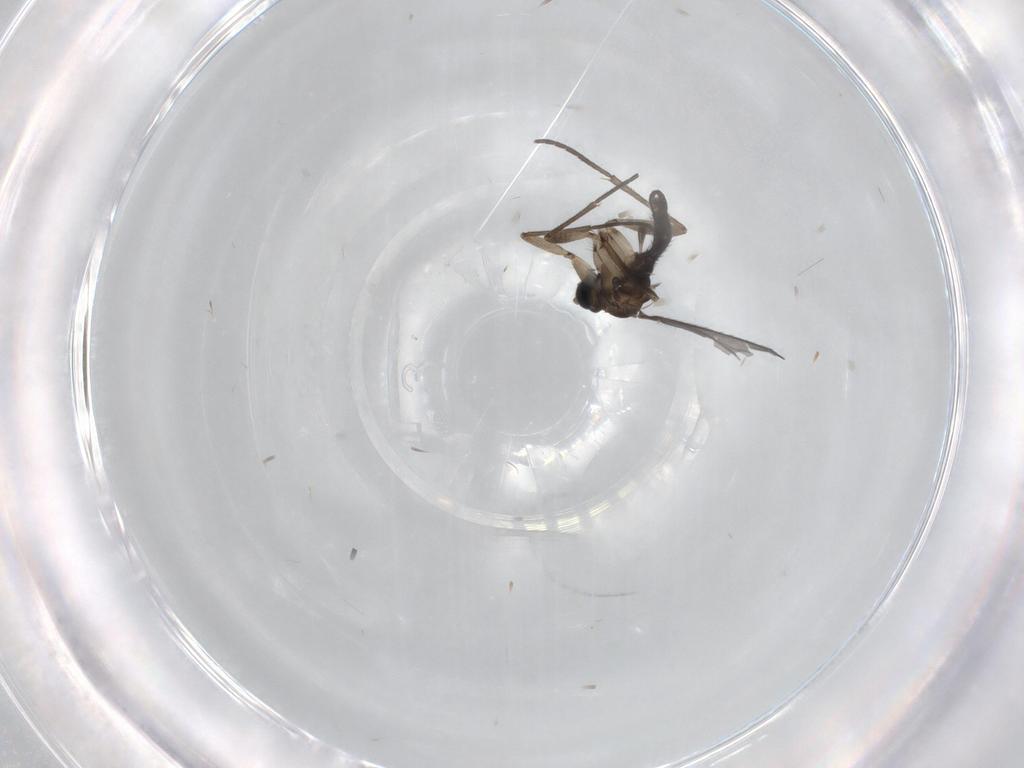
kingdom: Animalia
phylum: Arthropoda
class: Insecta
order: Diptera
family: Sciaridae
